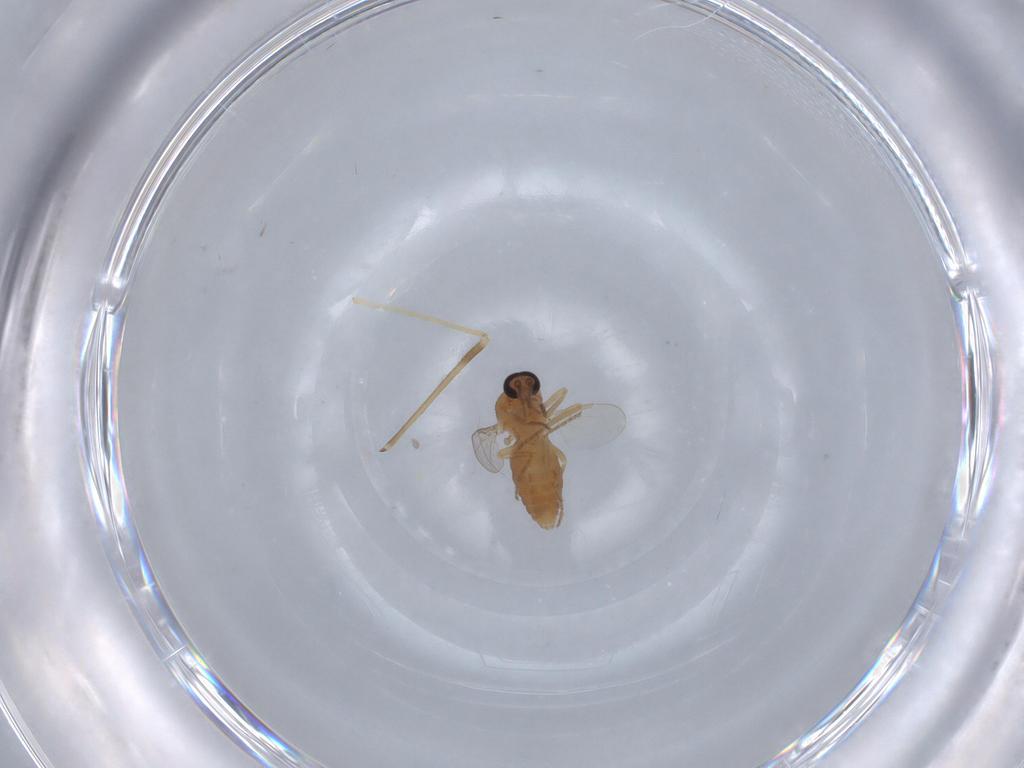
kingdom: Animalia
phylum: Arthropoda
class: Insecta
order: Diptera
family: Ceratopogonidae
